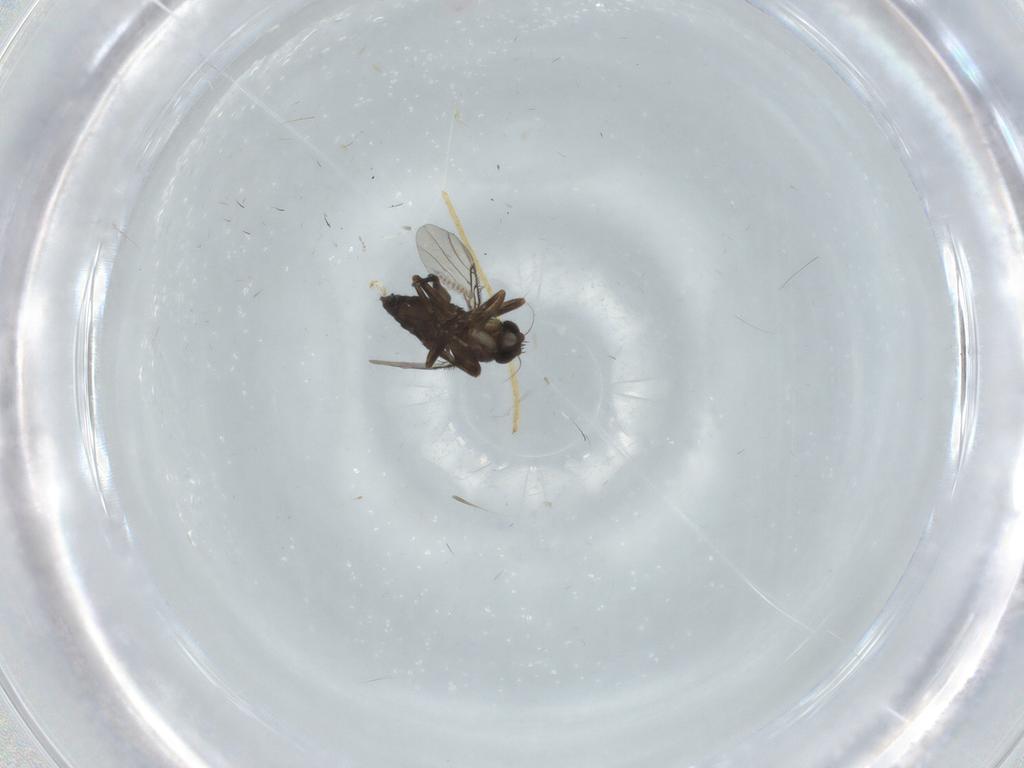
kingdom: Animalia
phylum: Arthropoda
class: Insecta
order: Diptera
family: Phoridae
